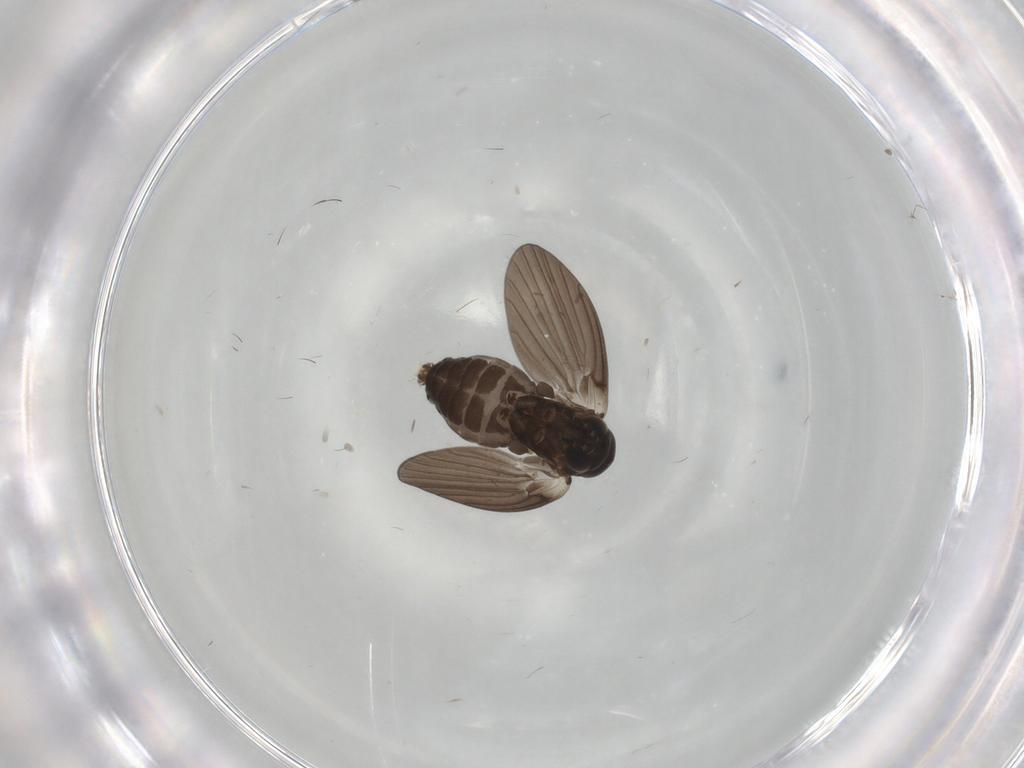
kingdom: Animalia
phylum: Arthropoda
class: Insecta
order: Diptera
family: Psychodidae
